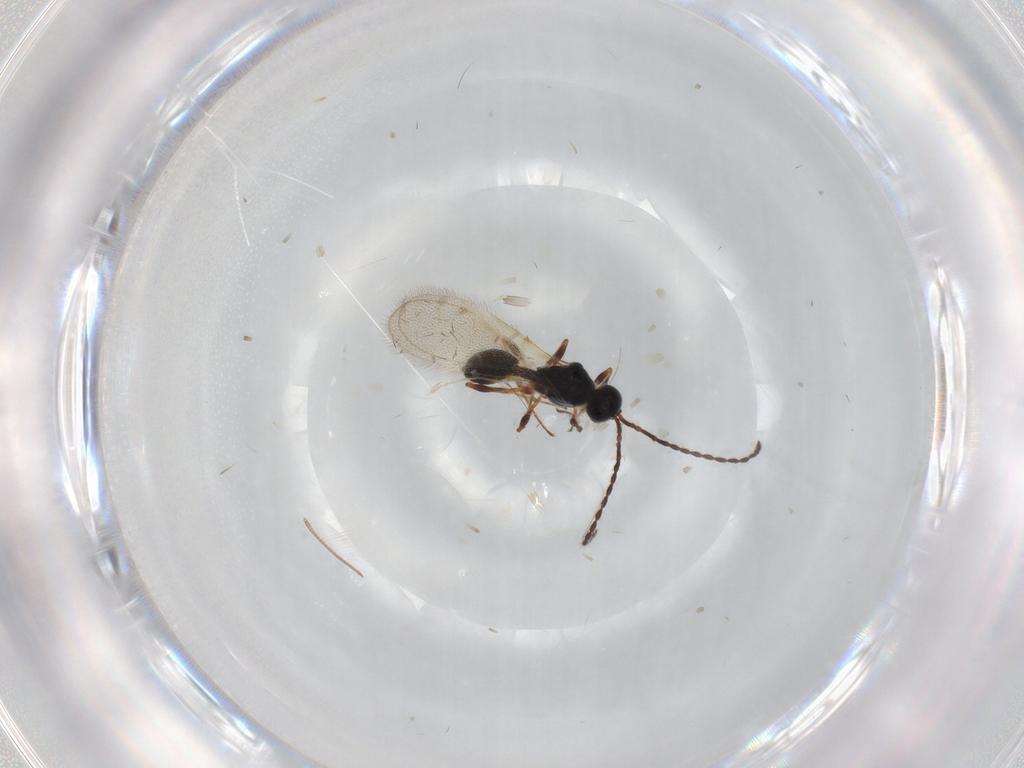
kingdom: Animalia
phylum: Arthropoda
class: Insecta
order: Hymenoptera
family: Diapriidae
